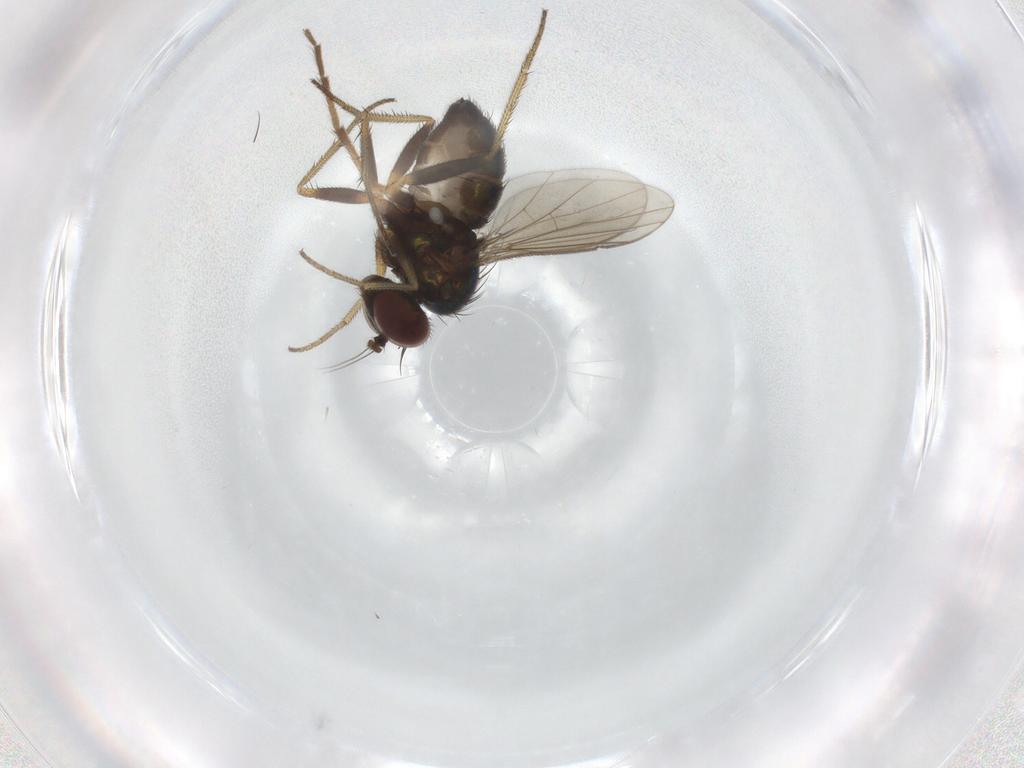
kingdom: Animalia
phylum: Arthropoda
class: Insecta
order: Diptera
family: Dolichopodidae
